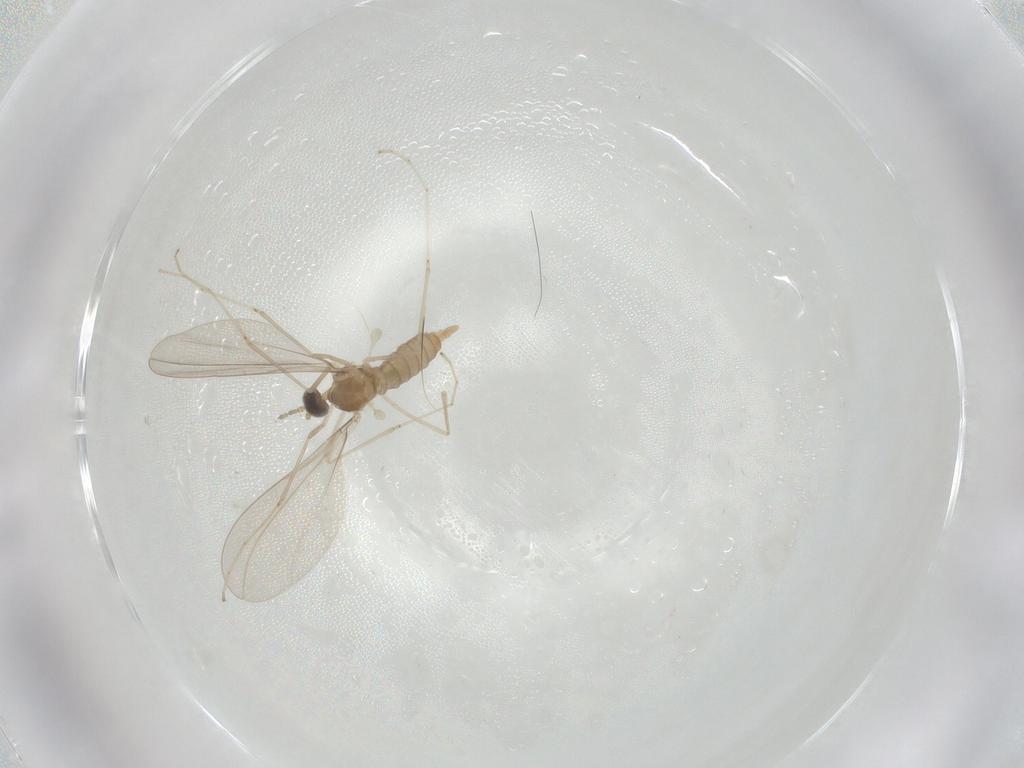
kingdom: Animalia
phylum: Arthropoda
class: Insecta
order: Diptera
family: Cecidomyiidae
